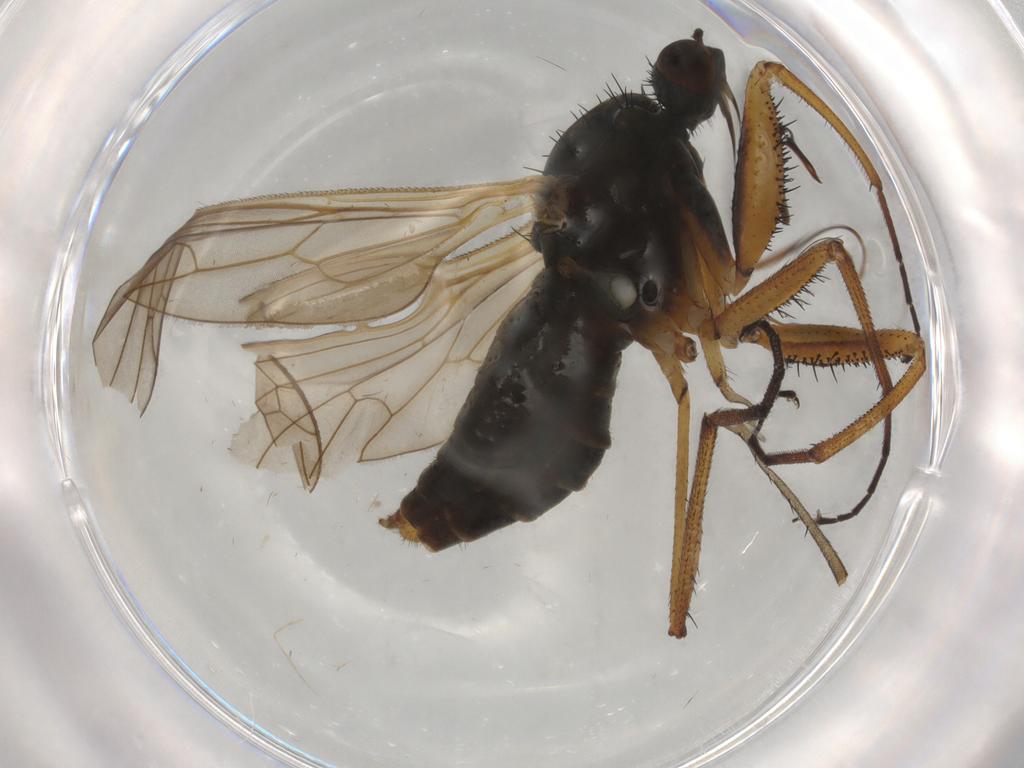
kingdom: Animalia
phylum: Arthropoda
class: Insecta
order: Diptera
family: Empididae
